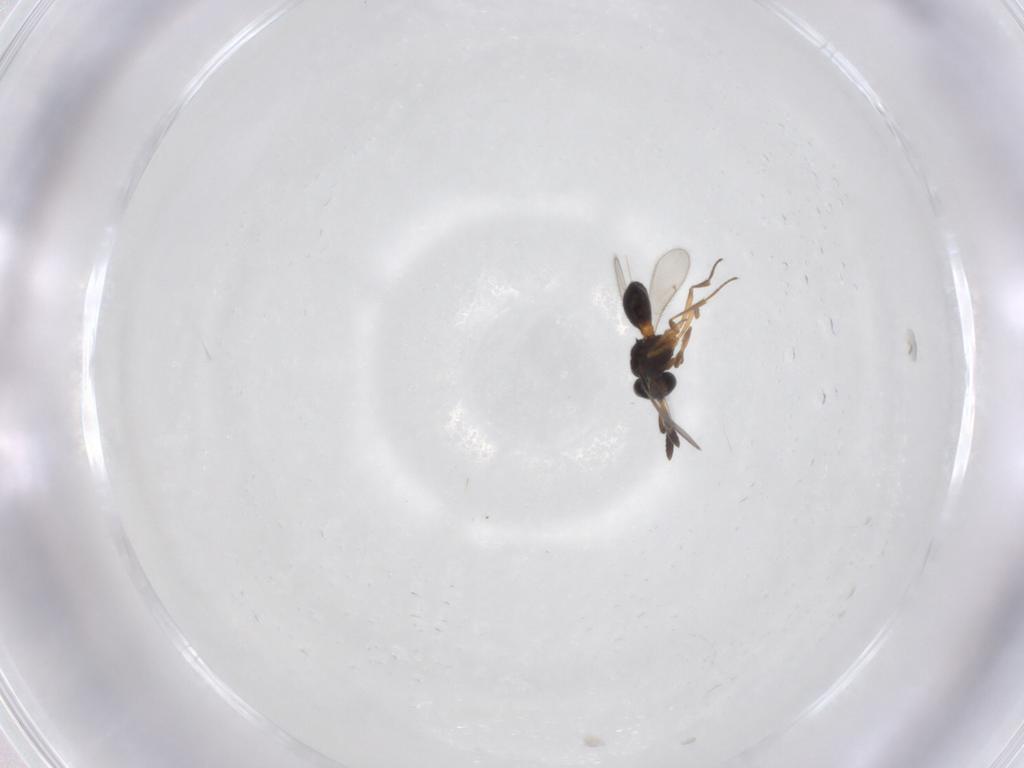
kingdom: Animalia
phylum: Arthropoda
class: Insecta
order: Hymenoptera
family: Scelionidae
